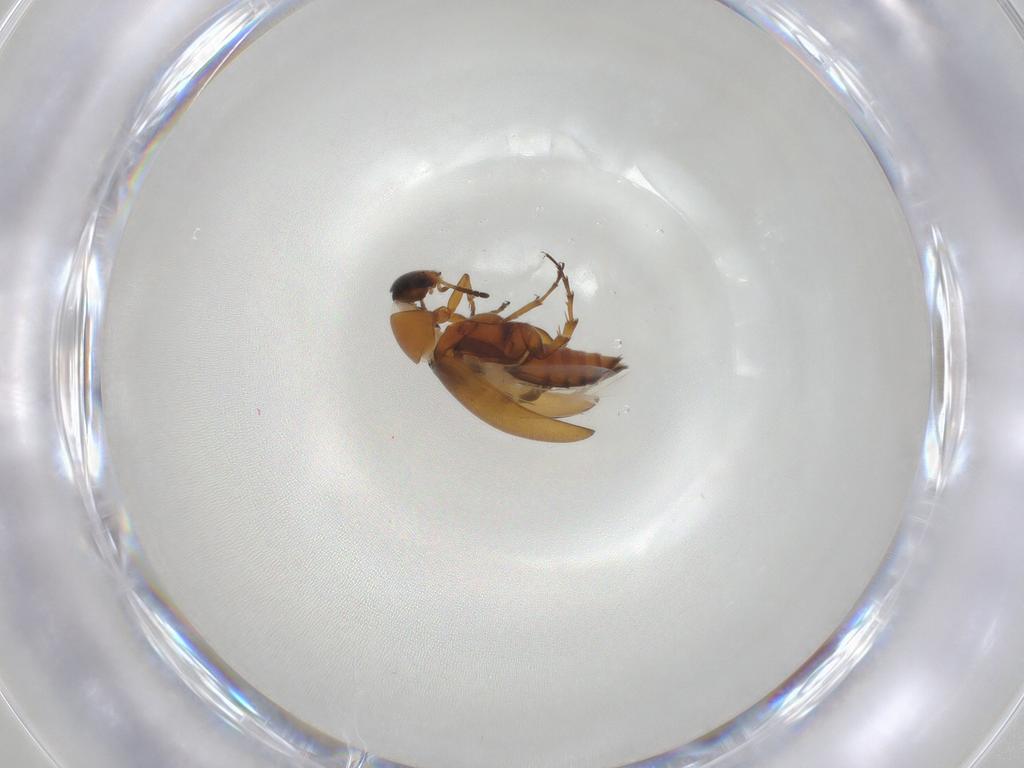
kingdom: Animalia
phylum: Arthropoda
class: Insecta
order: Coleoptera
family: Scraptiidae
